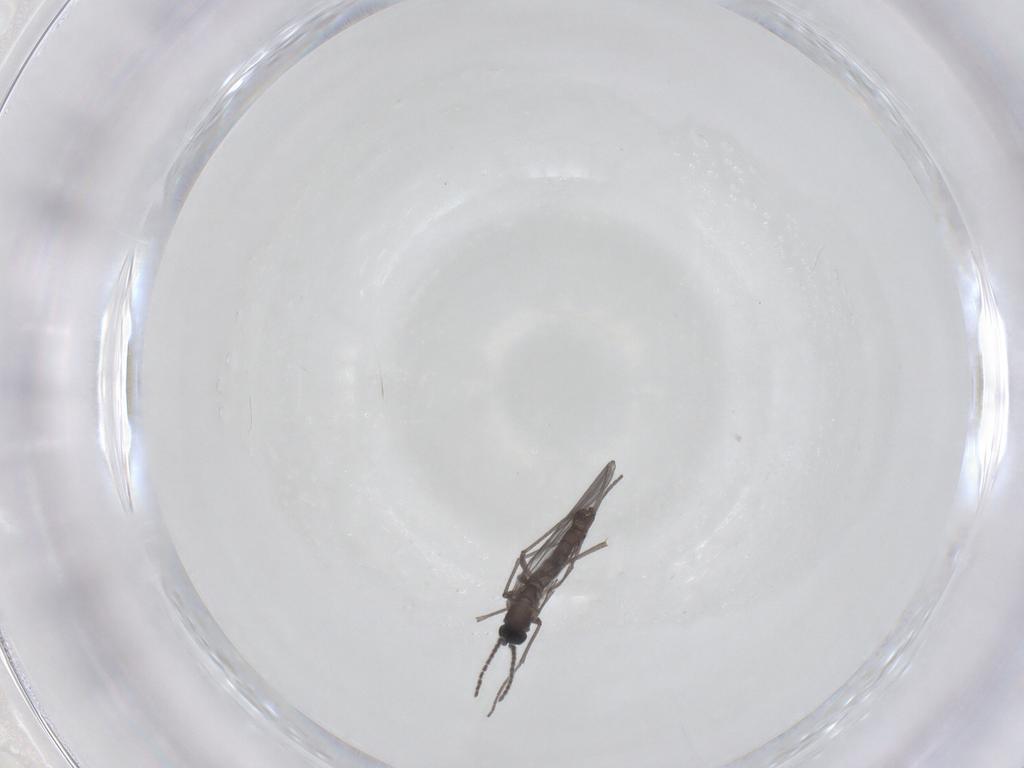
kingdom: Animalia
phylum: Arthropoda
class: Insecta
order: Diptera
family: Sciaridae
